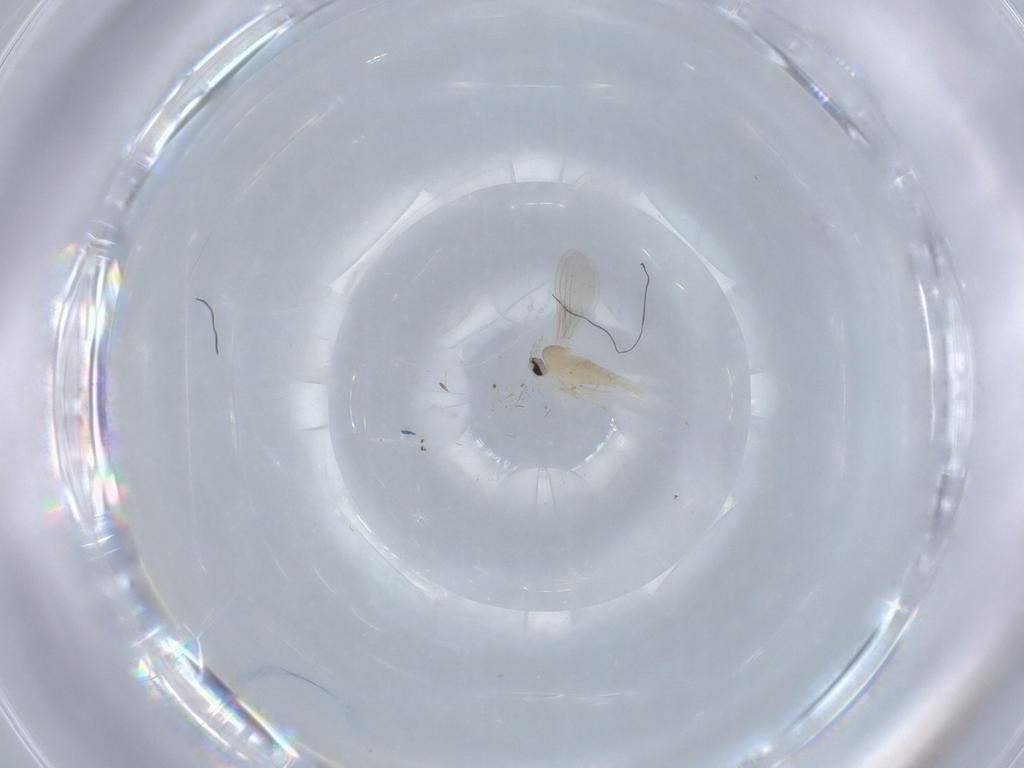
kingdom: Animalia
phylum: Arthropoda
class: Insecta
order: Diptera
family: Cecidomyiidae
